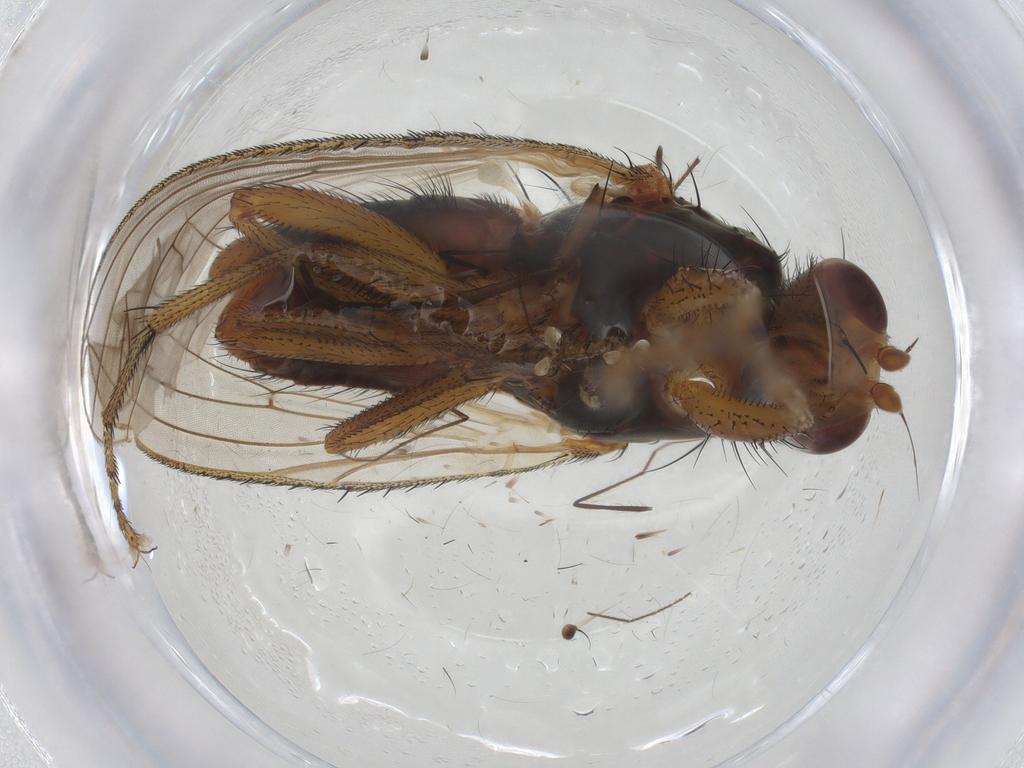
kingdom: Animalia
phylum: Arthropoda
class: Insecta
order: Diptera
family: Heleomyzidae
